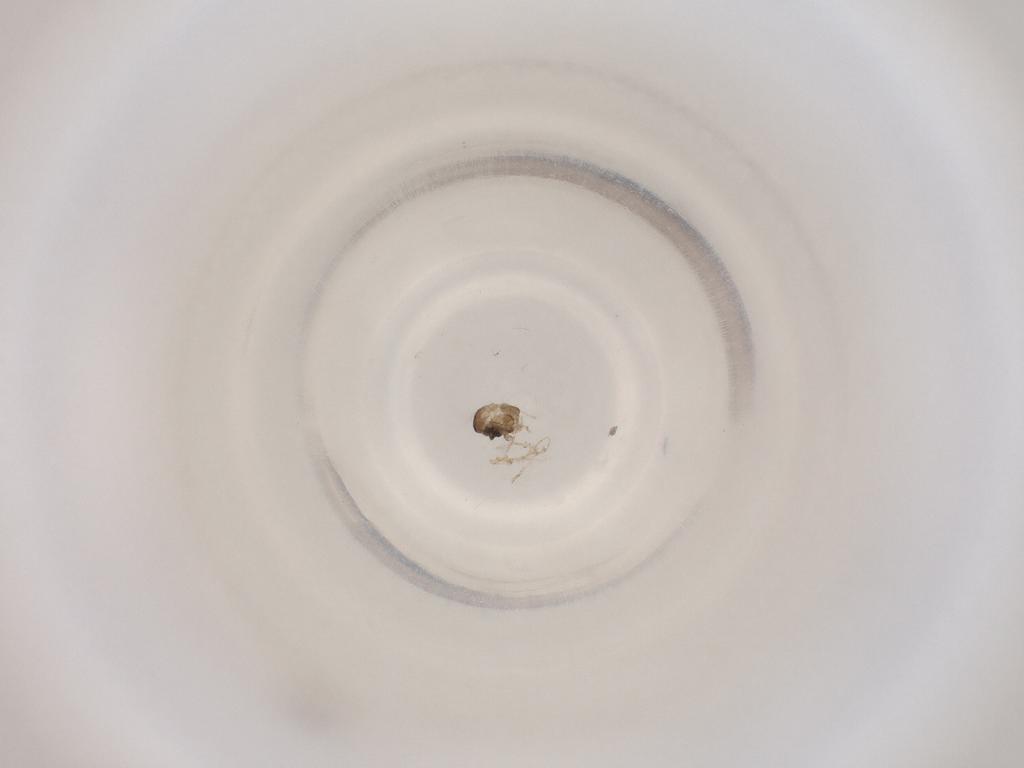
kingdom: Animalia
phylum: Arthropoda
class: Insecta
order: Diptera
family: Cecidomyiidae
